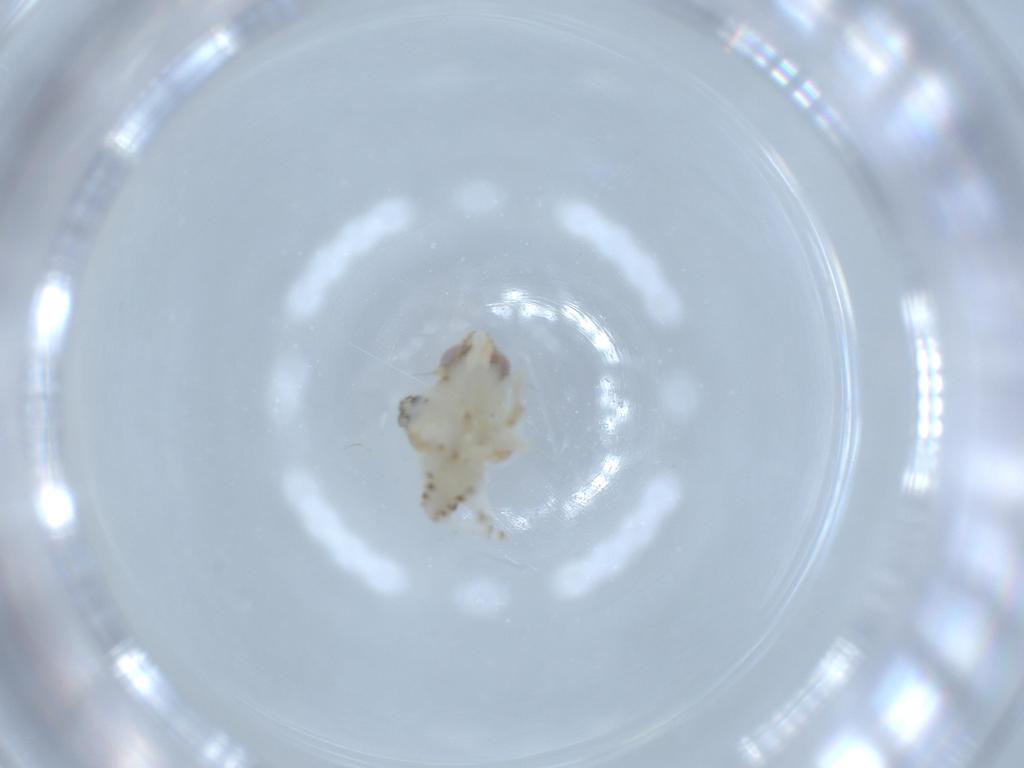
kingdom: Animalia
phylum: Arthropoda
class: Insecta
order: Hemiptera
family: Nogodinidae
